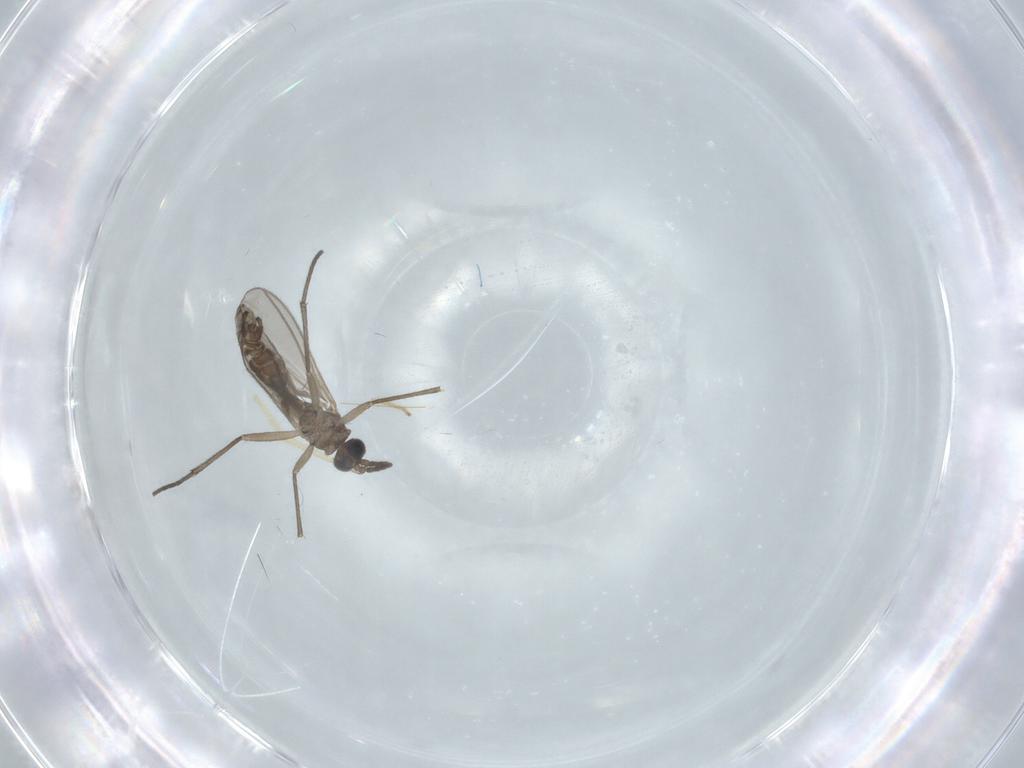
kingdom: Animalia
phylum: Arthropoda
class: Insecta
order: Diptera
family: Sciaridae
